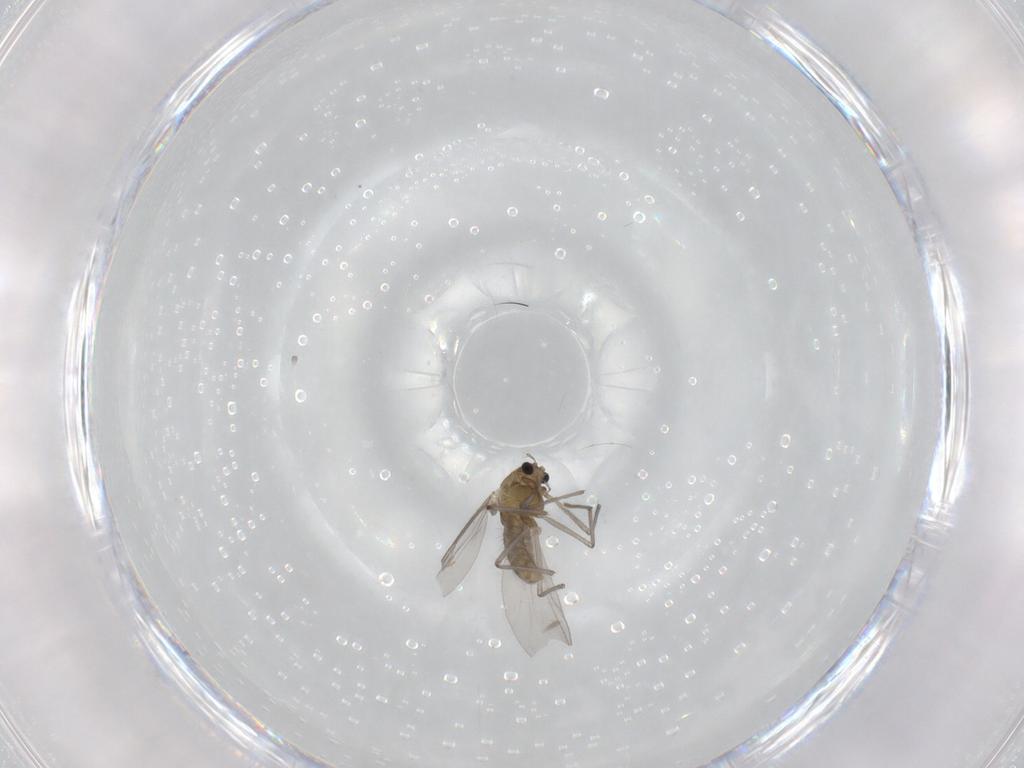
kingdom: Animalia
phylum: Arthropoda
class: Insecta
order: Diptera
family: Chironomidae
